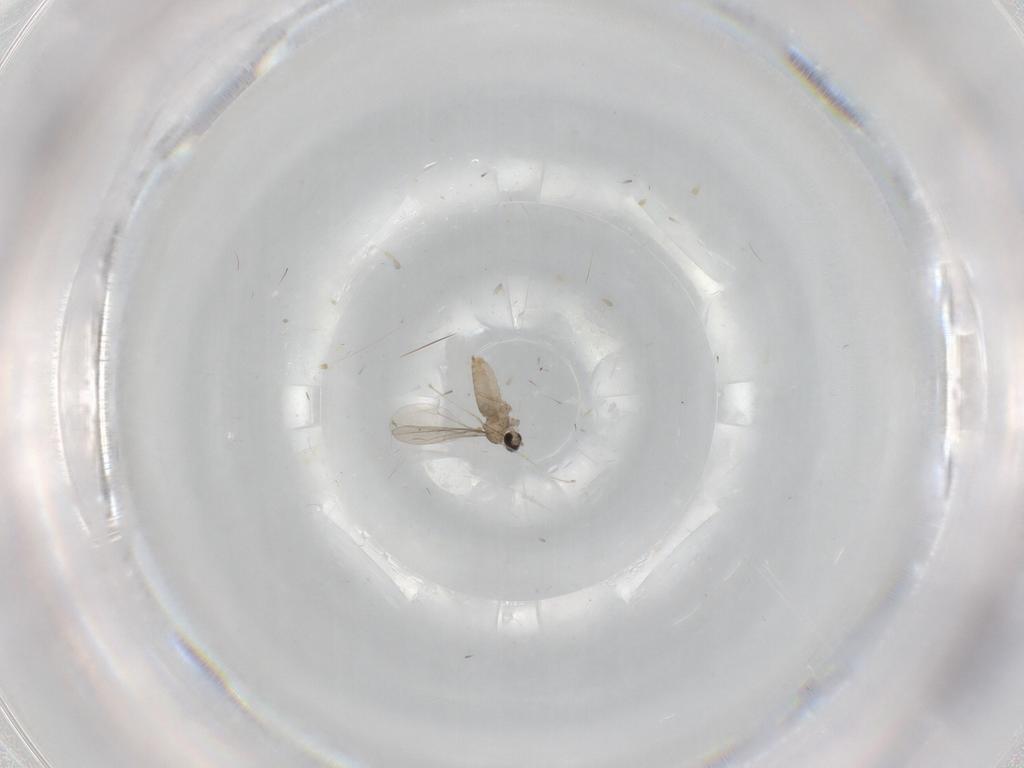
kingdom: Animalia
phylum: Arthropoda
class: Insecta
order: Diptera
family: Cecidomyiidae
